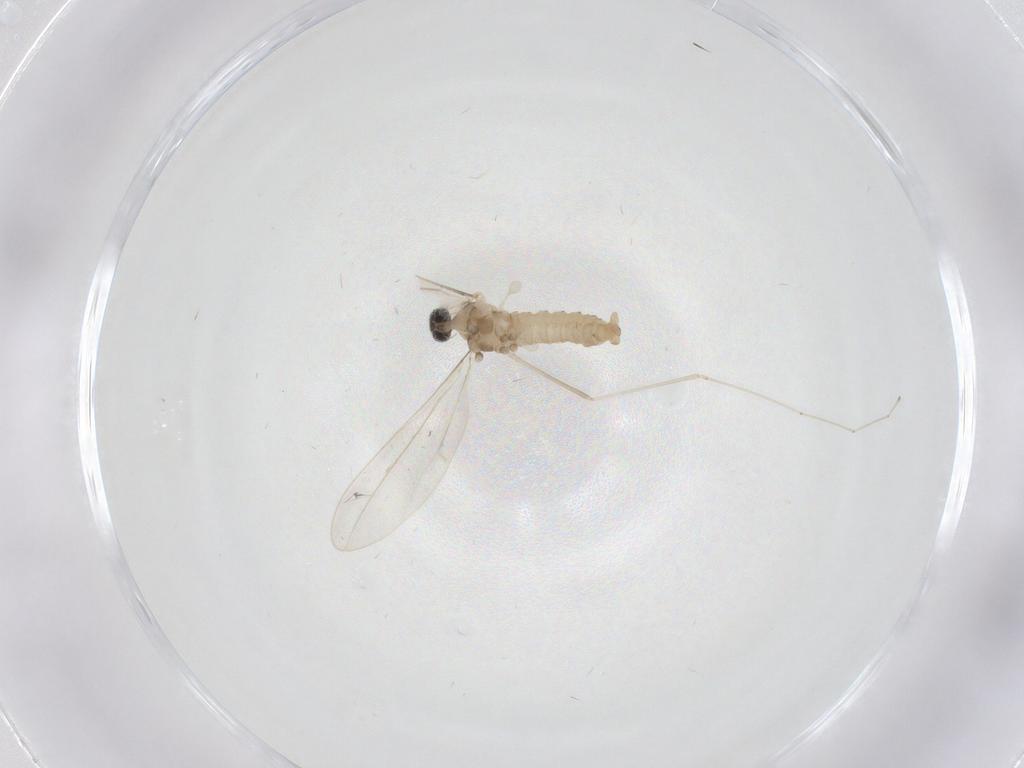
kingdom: Animalia
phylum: Arthropoda
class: Insecta
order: Diptera
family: Cecidomyiidae
